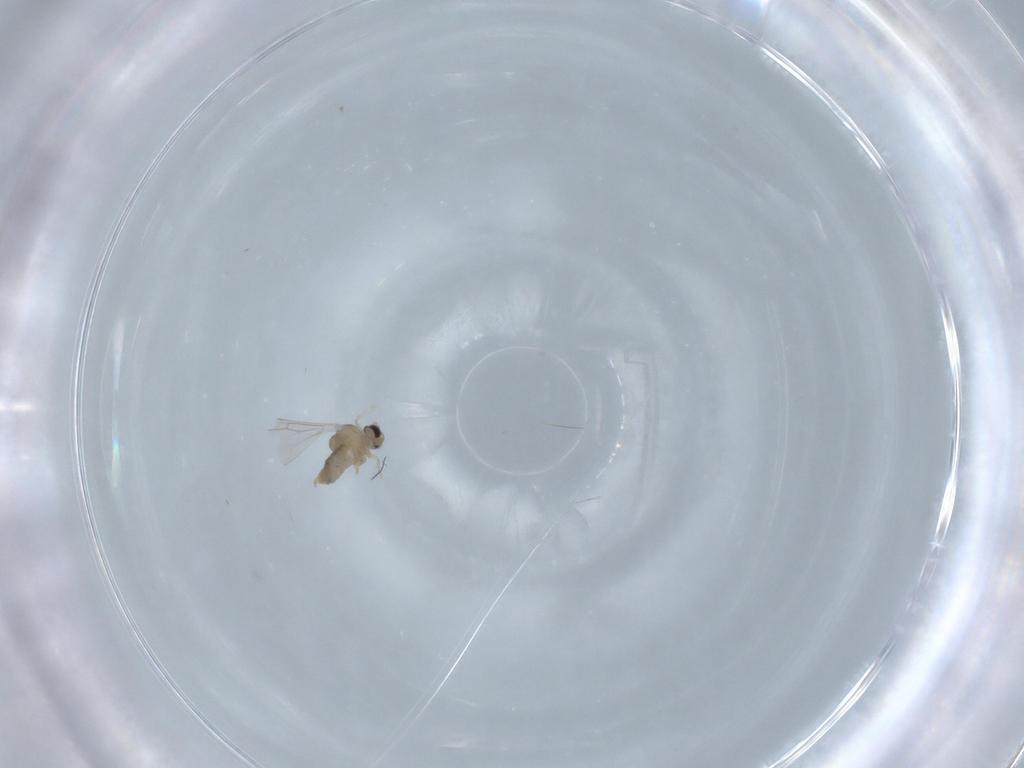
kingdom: Animalia
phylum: Arthropoda
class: Insecta
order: Diptera
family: Cecidomyiidae
